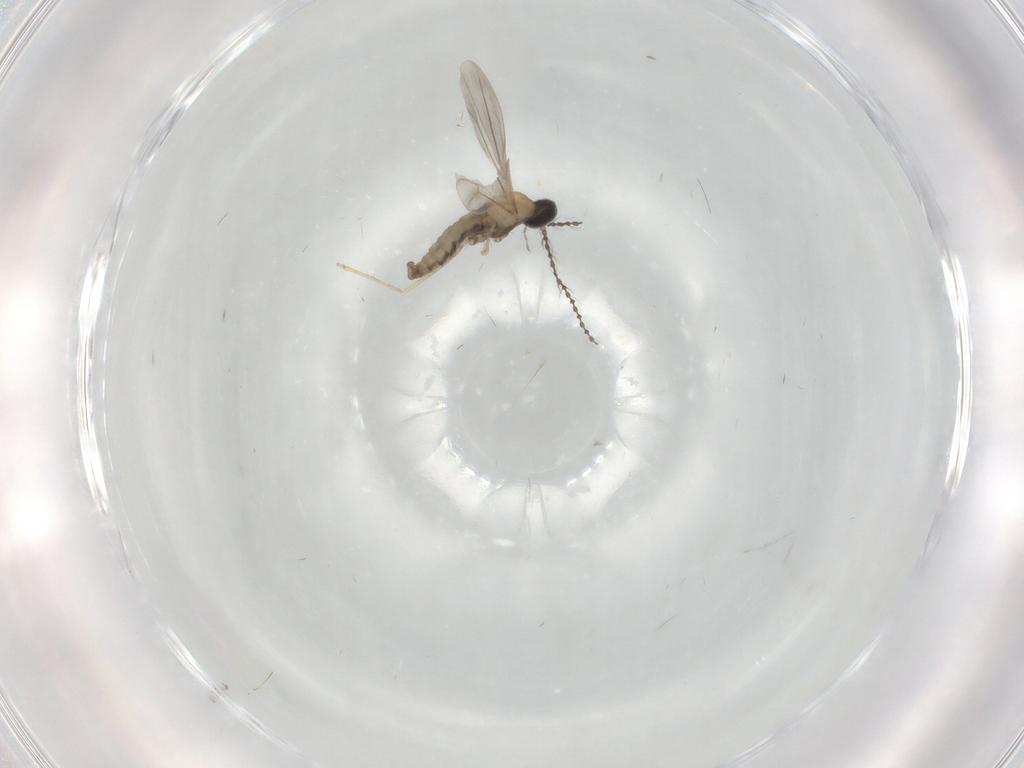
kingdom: Animalia
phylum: Arthropoda
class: Insecta
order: Diptera
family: Cecidomyiidae
